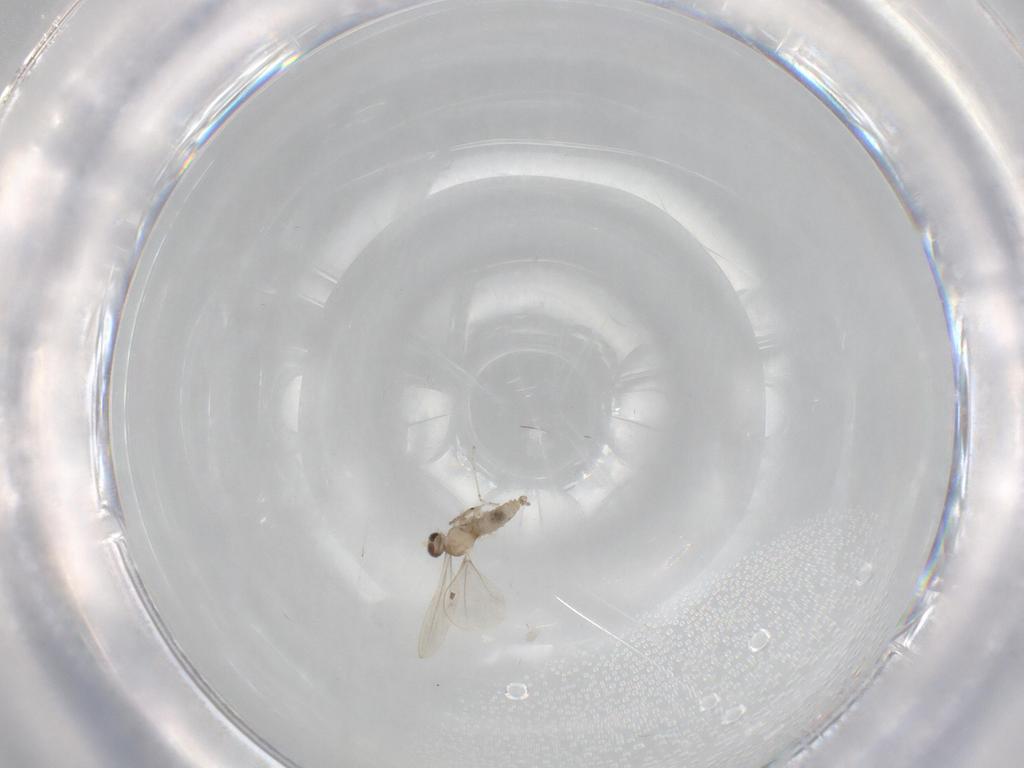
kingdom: Animalia
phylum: Arthropoda
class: Insecta
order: Diptera
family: Cecidomyiidae
